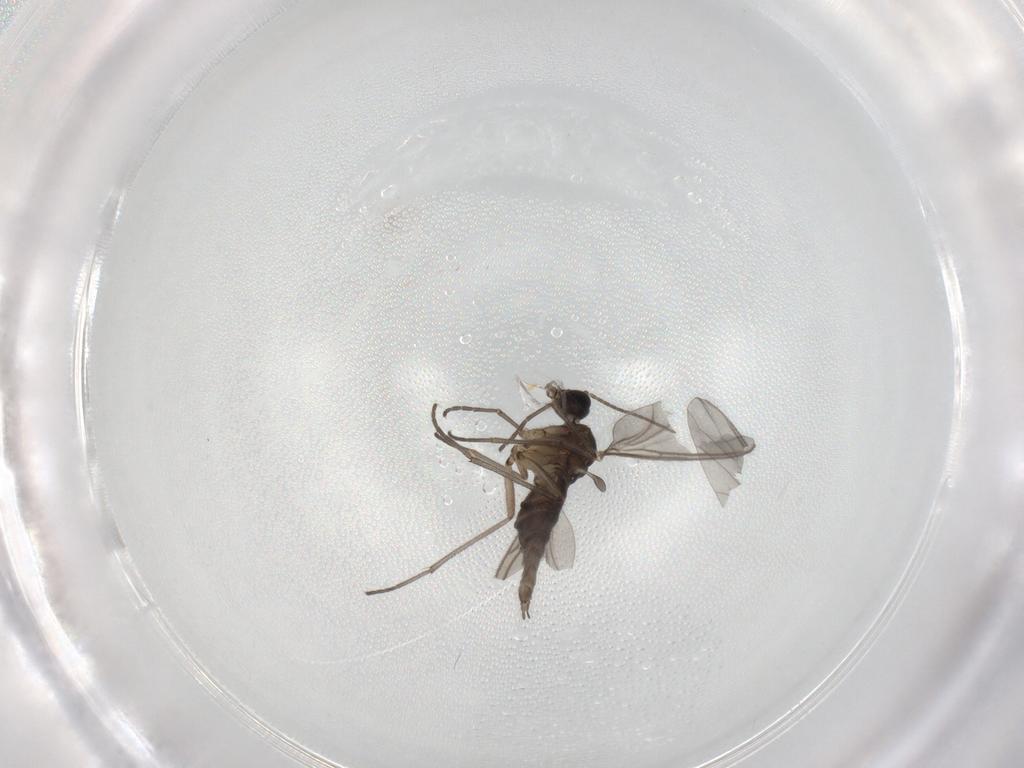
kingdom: Animalia
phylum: Arthropoda
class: Insecta
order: Diptera
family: Sciaridae
